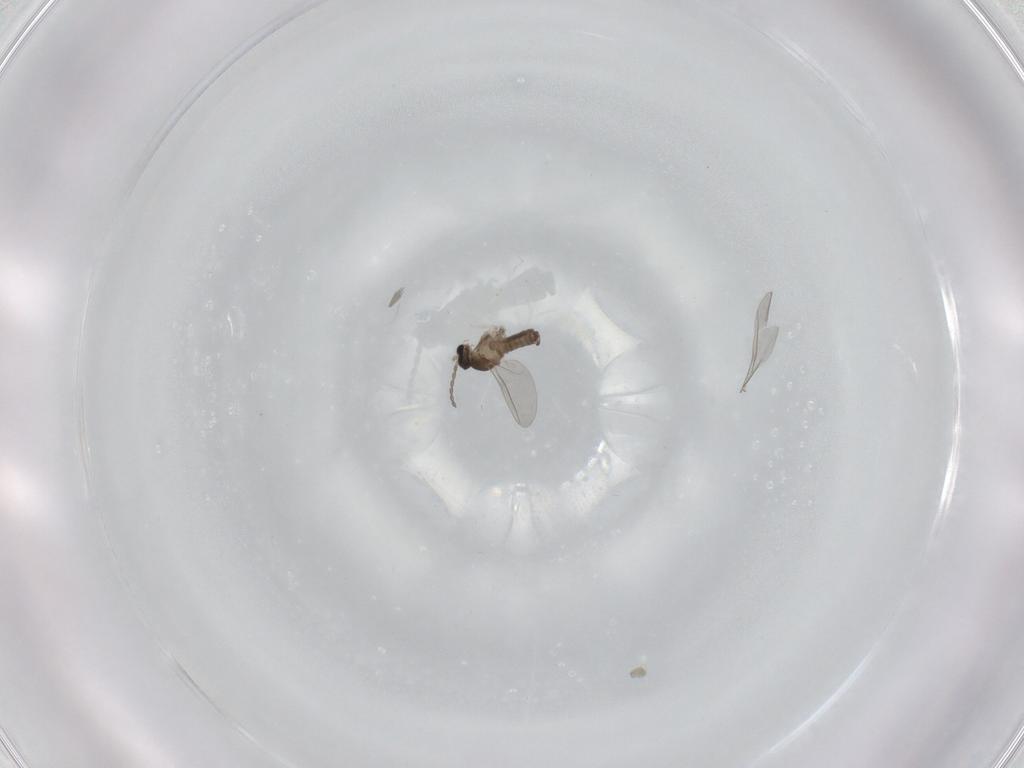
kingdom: Animalia
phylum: Arthropoda
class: Insecta
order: Diptera
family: Cecidomyiidae
